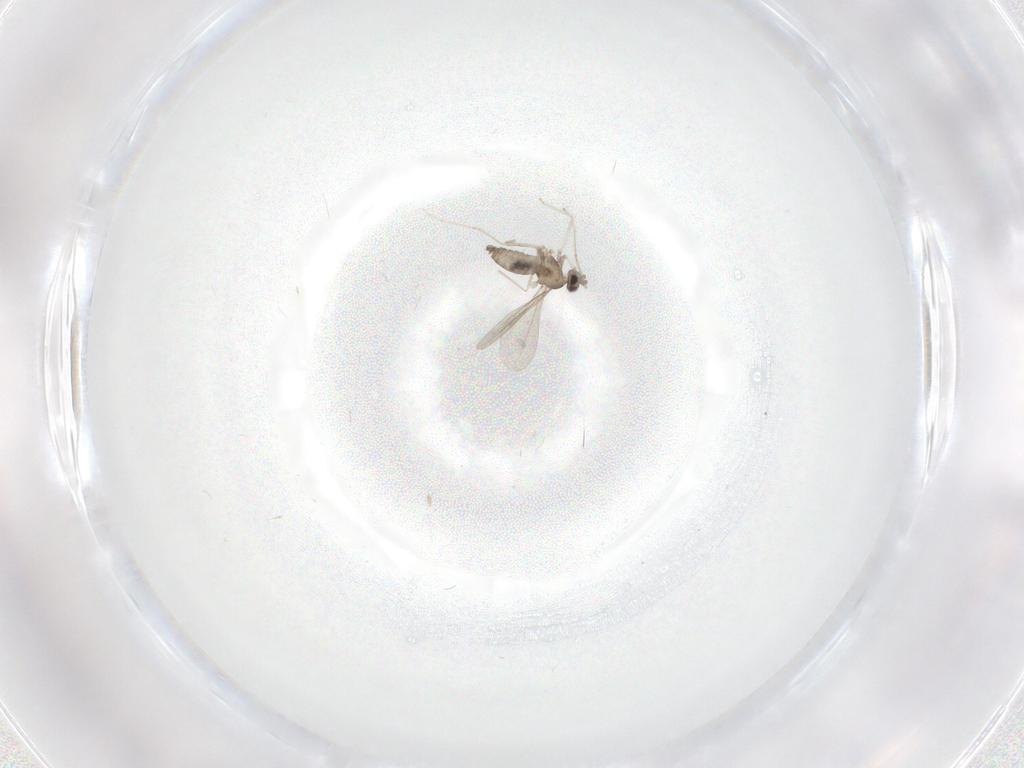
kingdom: Animalia
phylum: Arthropoda
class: Insecta
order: Diptera
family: Cecidomyiidae
